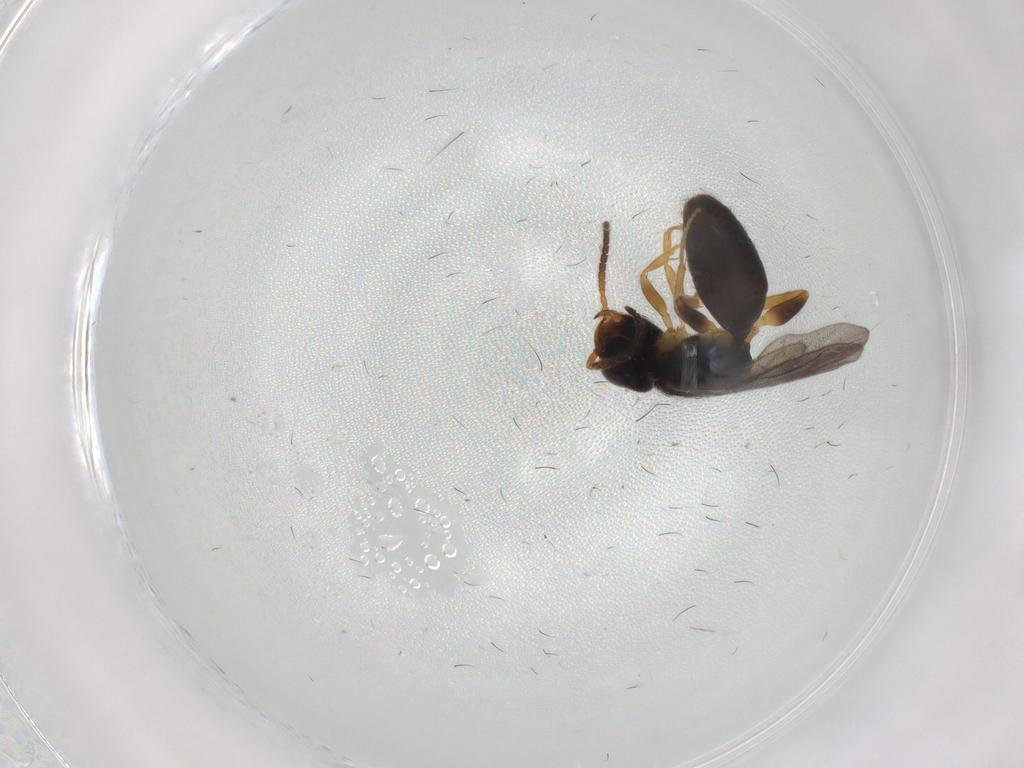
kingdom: Animalia
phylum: Arthropoda
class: Insecta
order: Hymenoptera
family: Bethylidae
